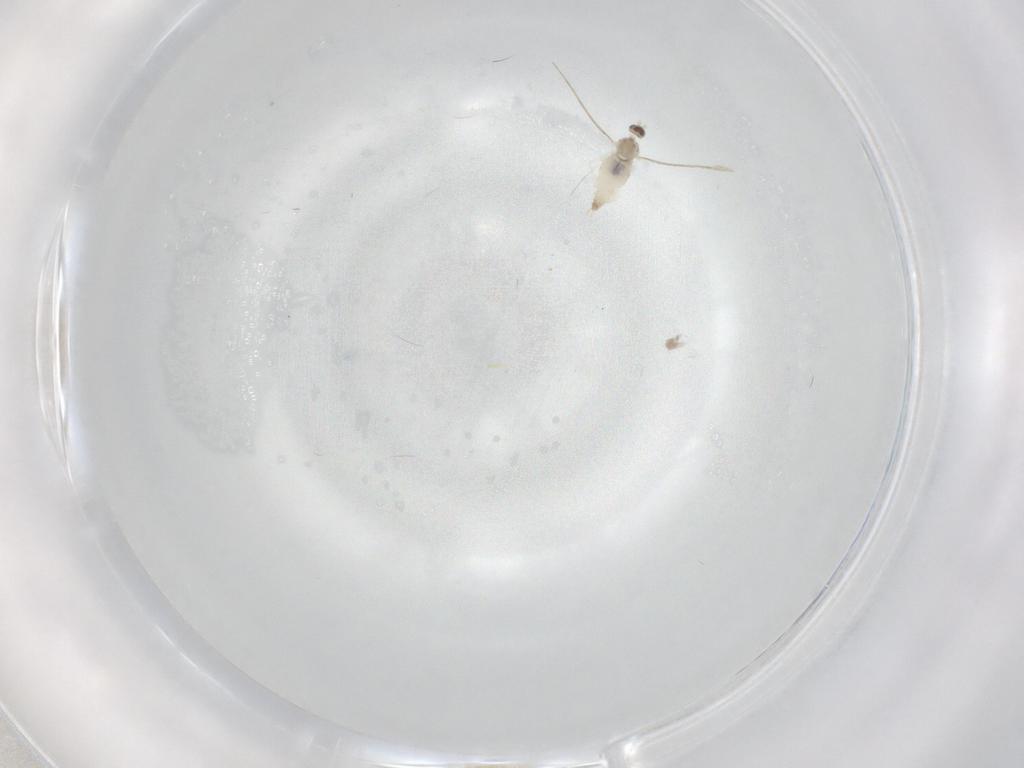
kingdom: Animalia
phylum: Arthropoda
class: Insecta
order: Diptera
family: Cecidomyiidae
